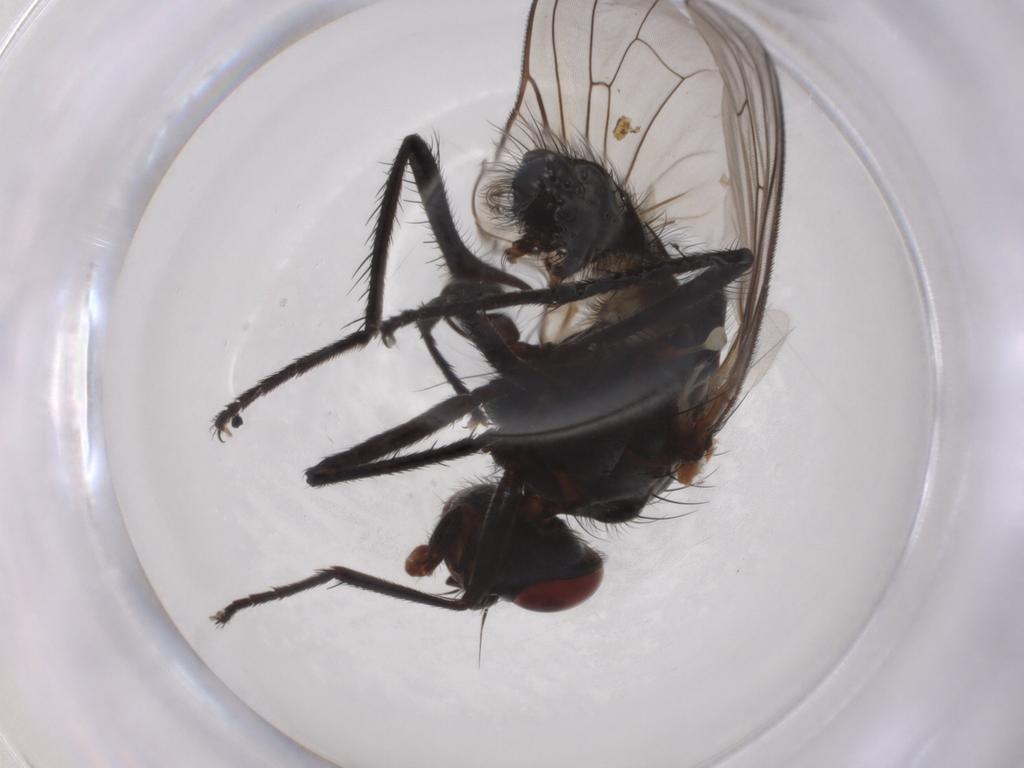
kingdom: Animalia
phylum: Arthropoda
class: Insecta
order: Diptera
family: Anthomyiidae
